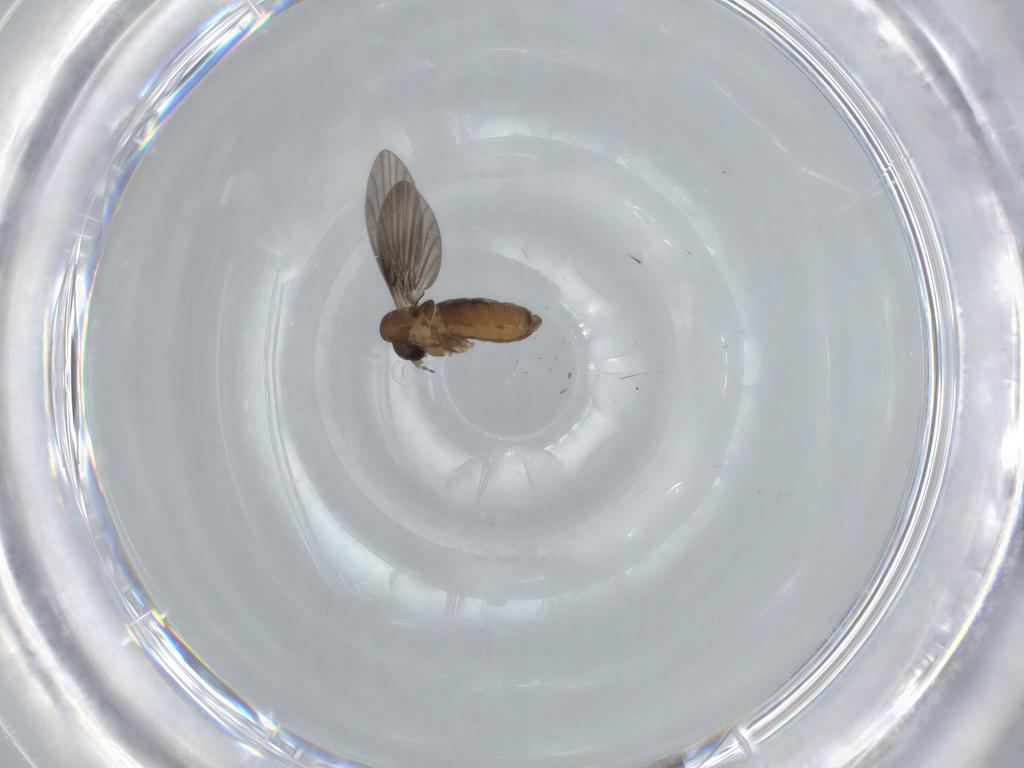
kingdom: Animalia
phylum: Arthropoda
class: Insecta
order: Diptera
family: Psychodidae
